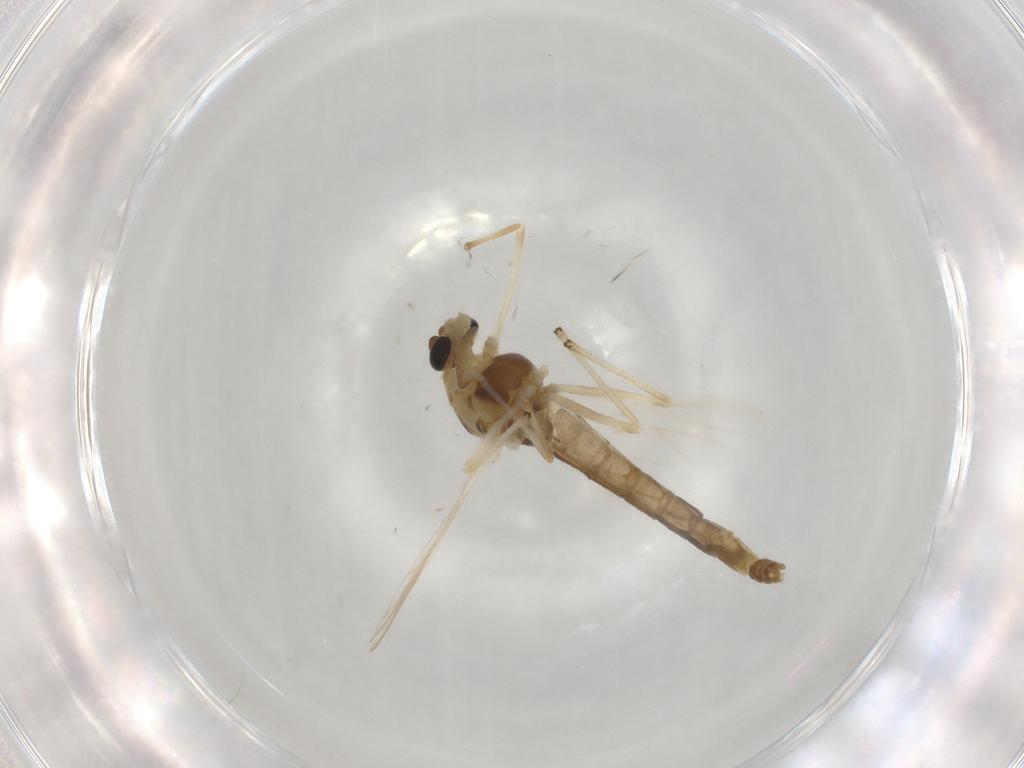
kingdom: Animalia
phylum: Arthropoda
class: Insecta
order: Diptera
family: Chironomidae
